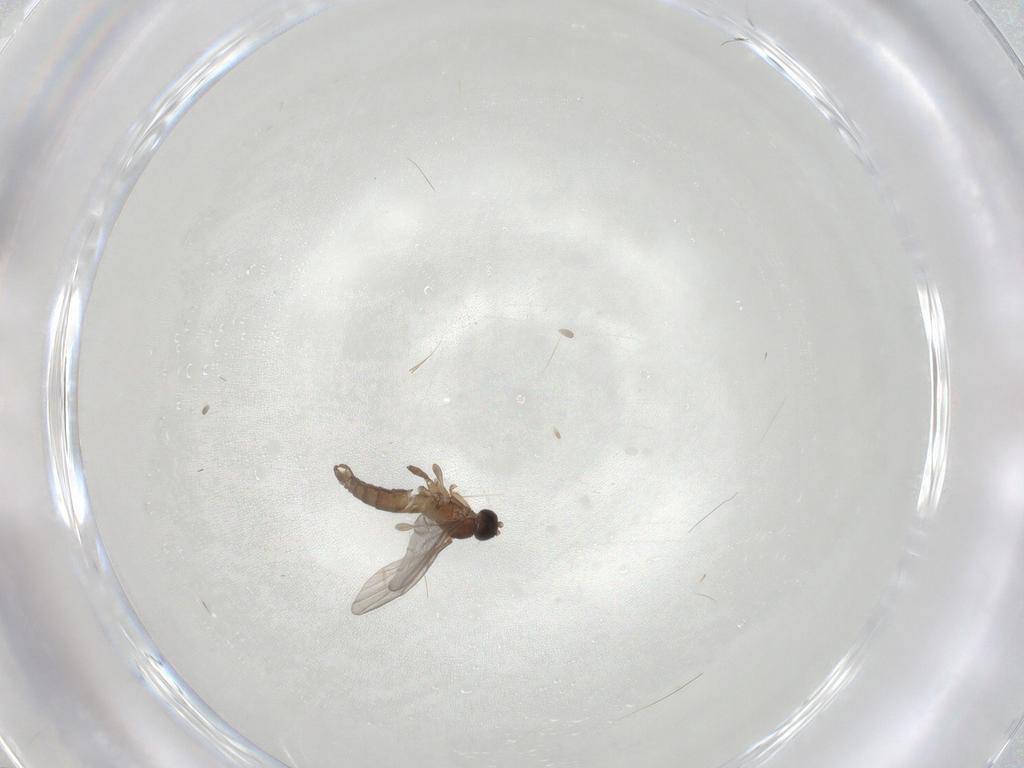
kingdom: Animalia
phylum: Arthropoda
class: Insecta
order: Diptera
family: Sciaridae
